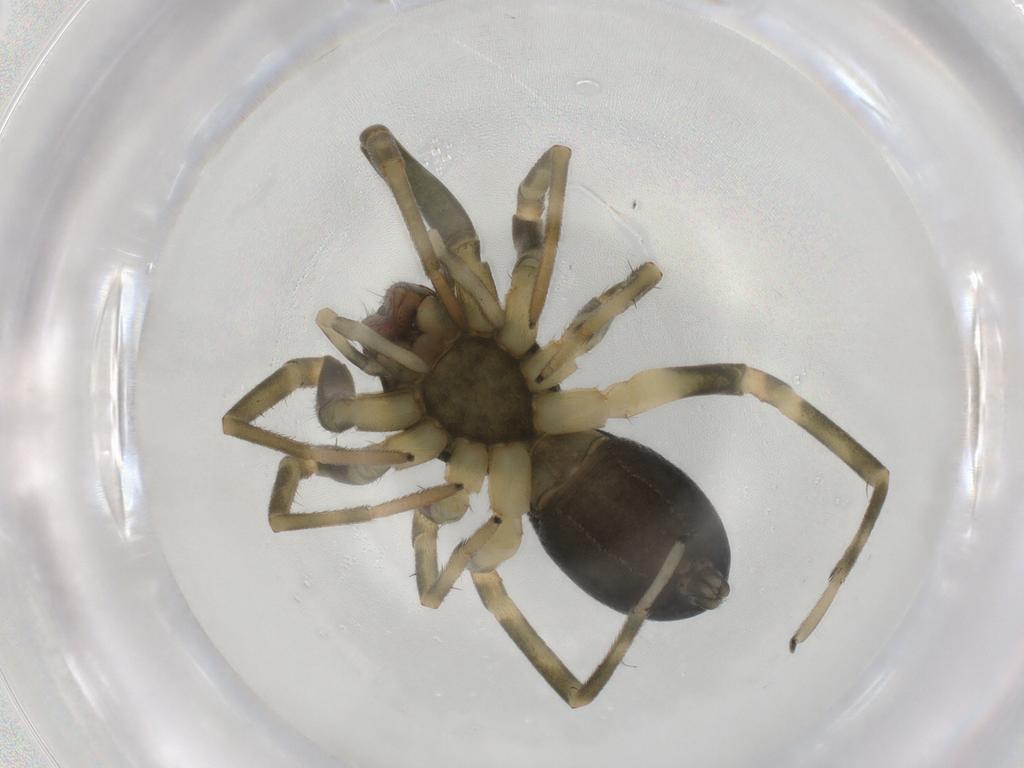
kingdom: Animalia
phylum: Arthropoda
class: Arachnida
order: Araneae
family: Trachelidae
